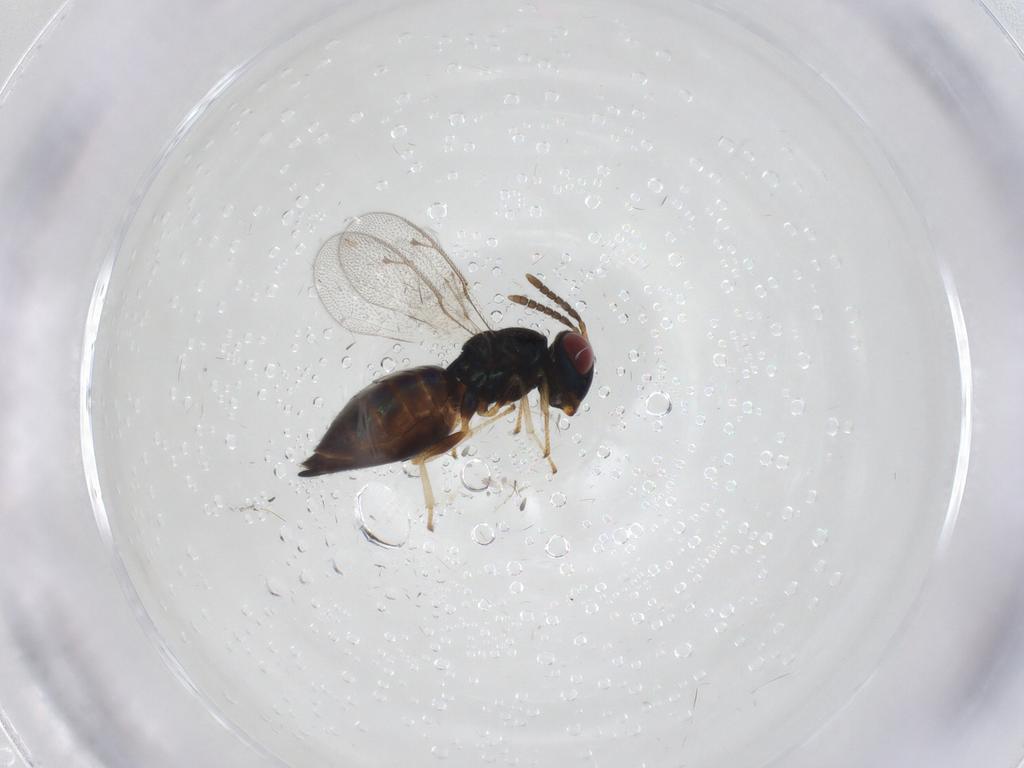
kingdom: Animalia
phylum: Arthropoda
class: Insecta
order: Hymenoptera
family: Pteromalidae
